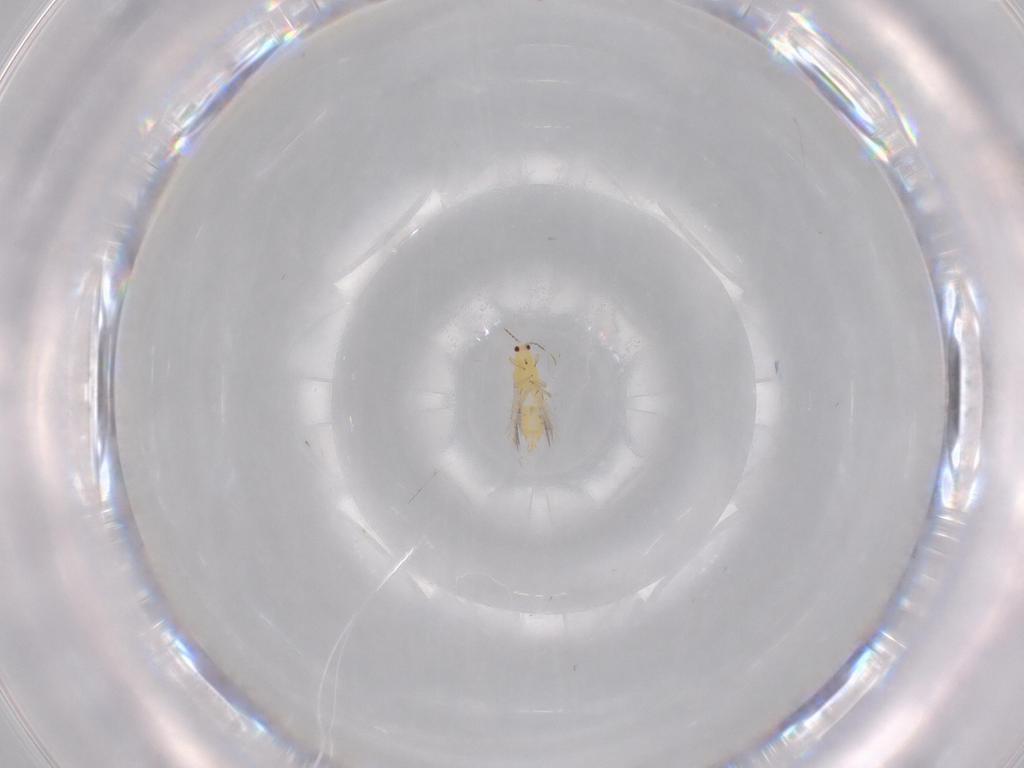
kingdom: Animalia
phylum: Arthropoda
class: Insecta
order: Thysanoptera
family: Thripidae
